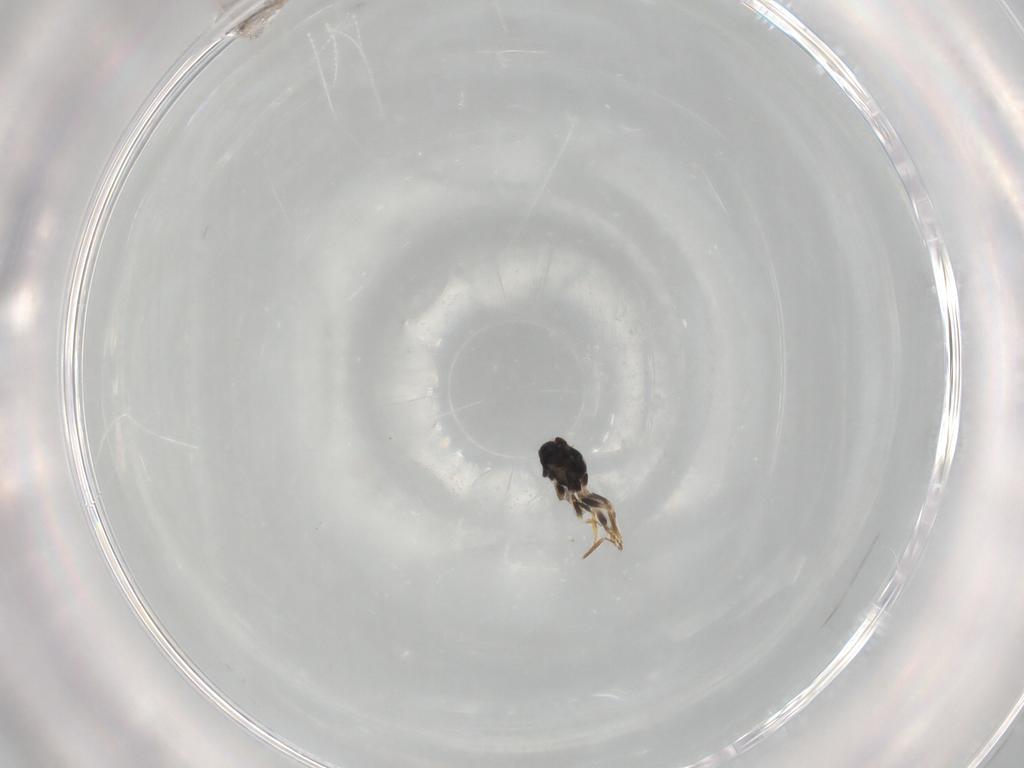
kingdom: Animalia
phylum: Arthropoda
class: Insecta
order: Hymenoptera
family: Eulophidae
